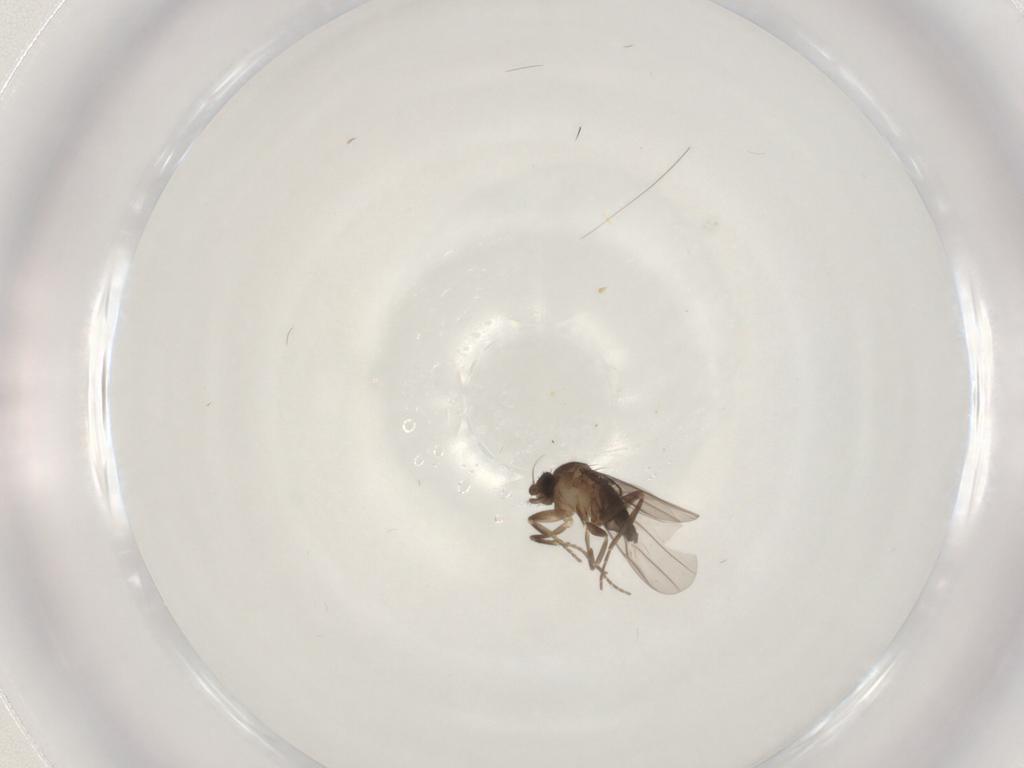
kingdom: Animalia
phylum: Arthropoda
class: Insecta
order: Diptera
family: Phoridae
